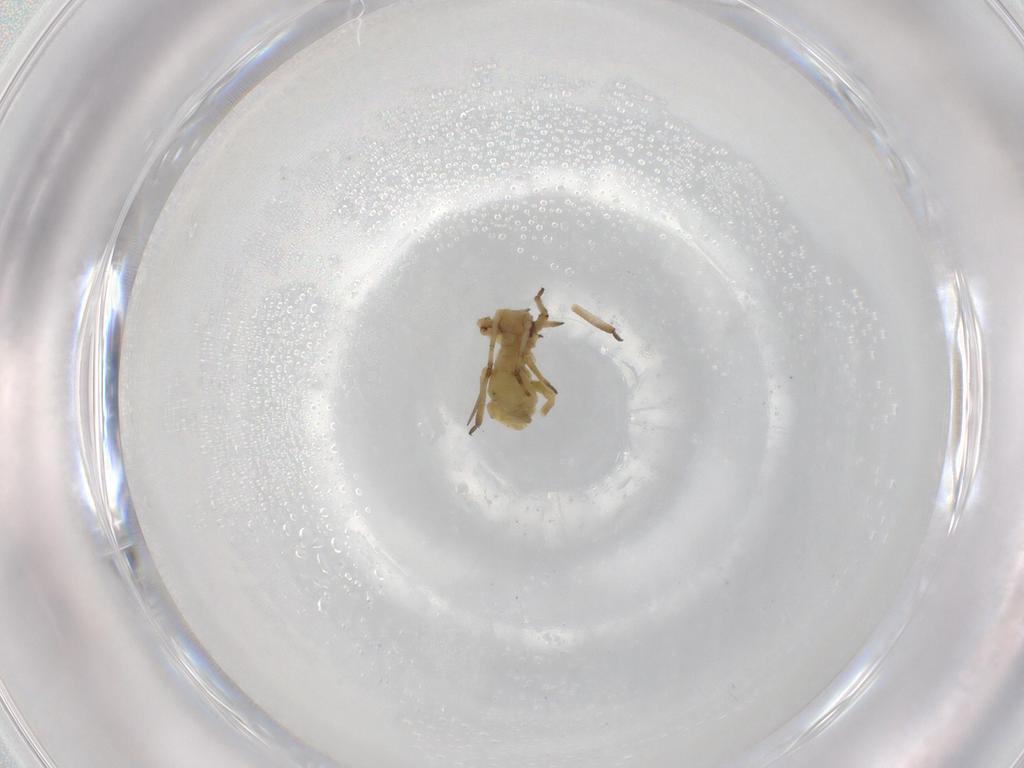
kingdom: Animalia
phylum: Arthropoda
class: Insecta
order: Hemiptera
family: Aphididae
